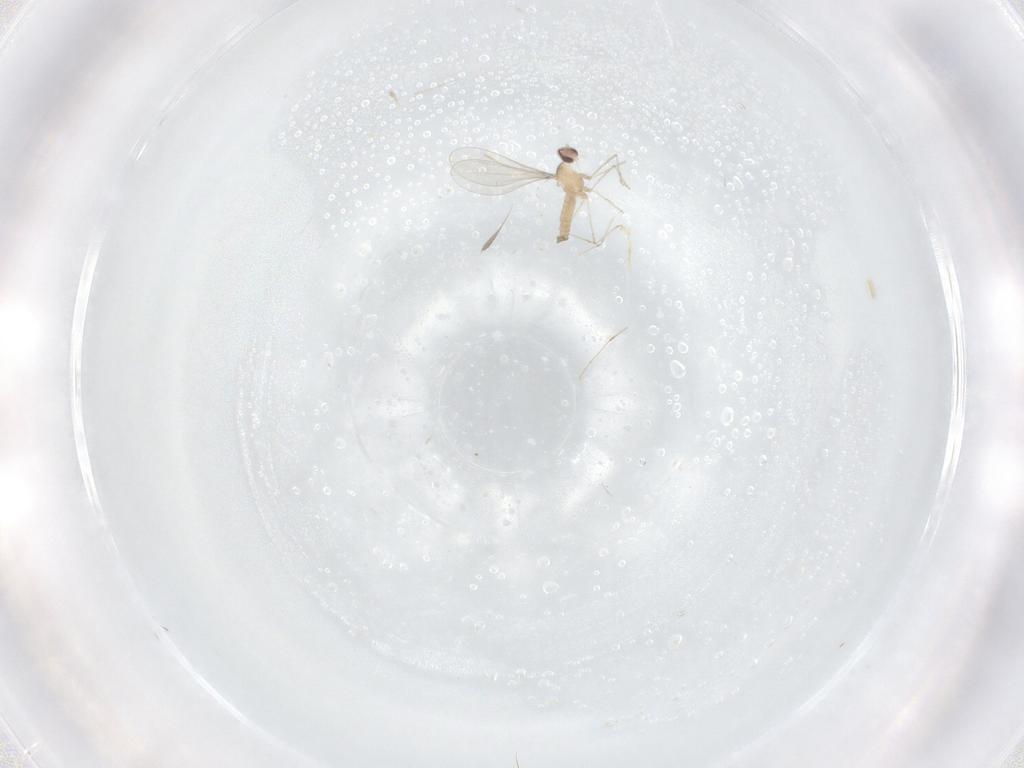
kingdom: Animalia
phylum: Arthropoda
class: Insecta
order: Diptera
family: Cecidomyiidae
